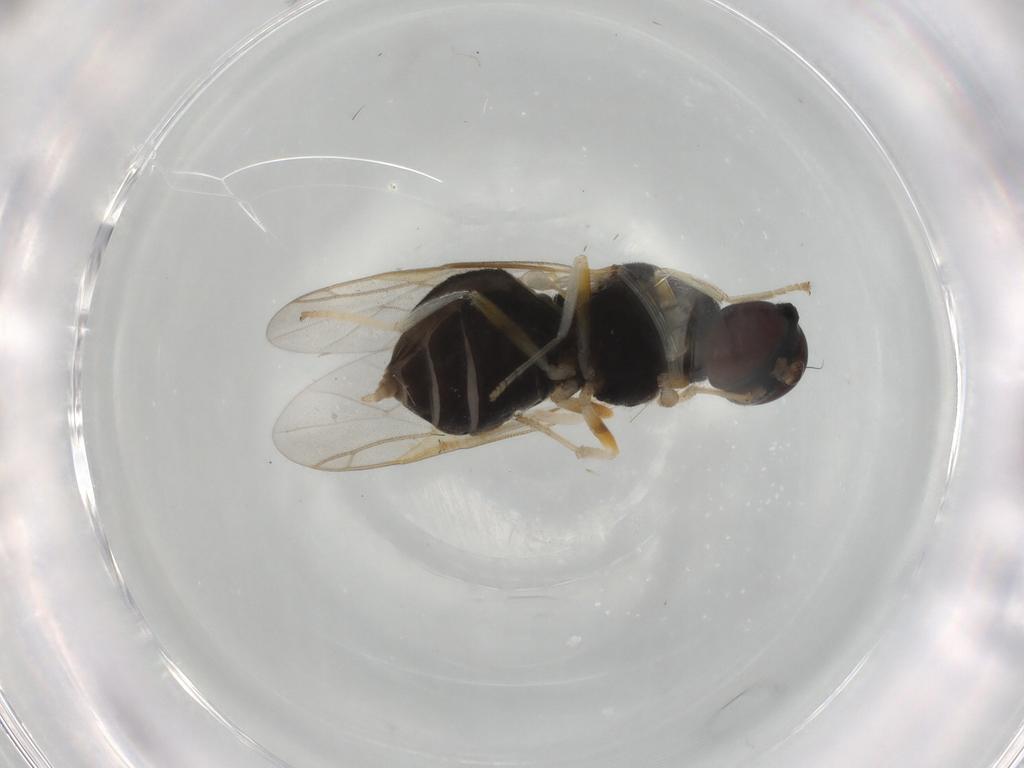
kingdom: Animalia
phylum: Arthropoda
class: Insecta
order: Diptera
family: Stratiomyidae
